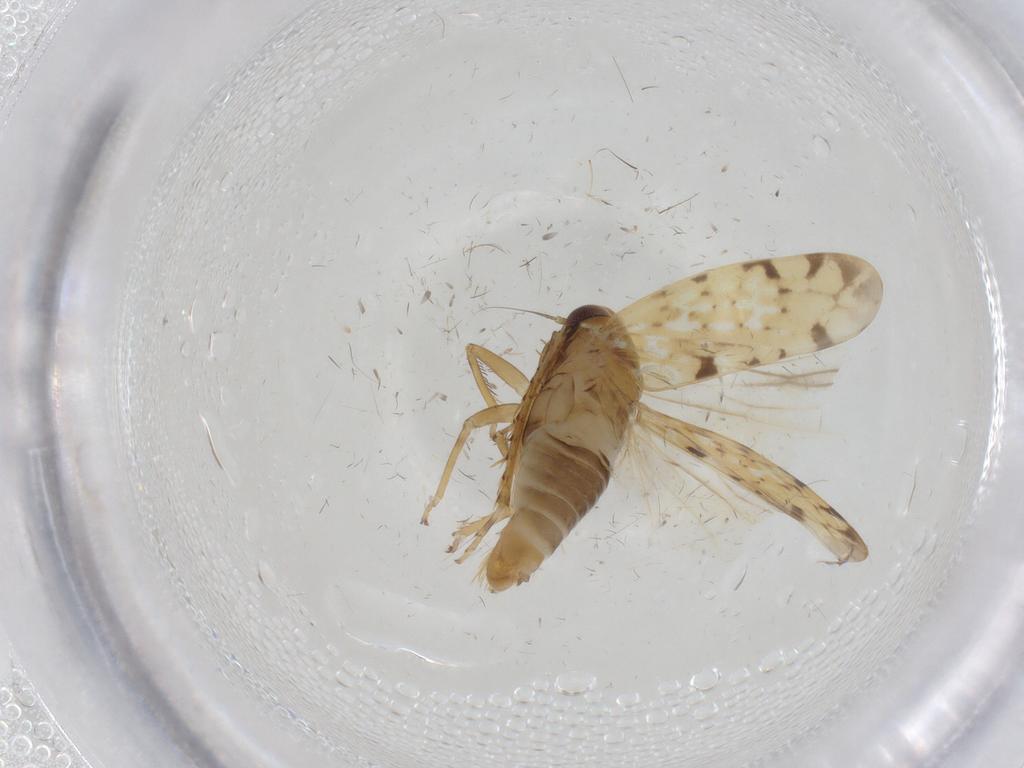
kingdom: Animalia
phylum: Arthropoda
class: Insecta
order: Hemiptera
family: Cicadellidae
